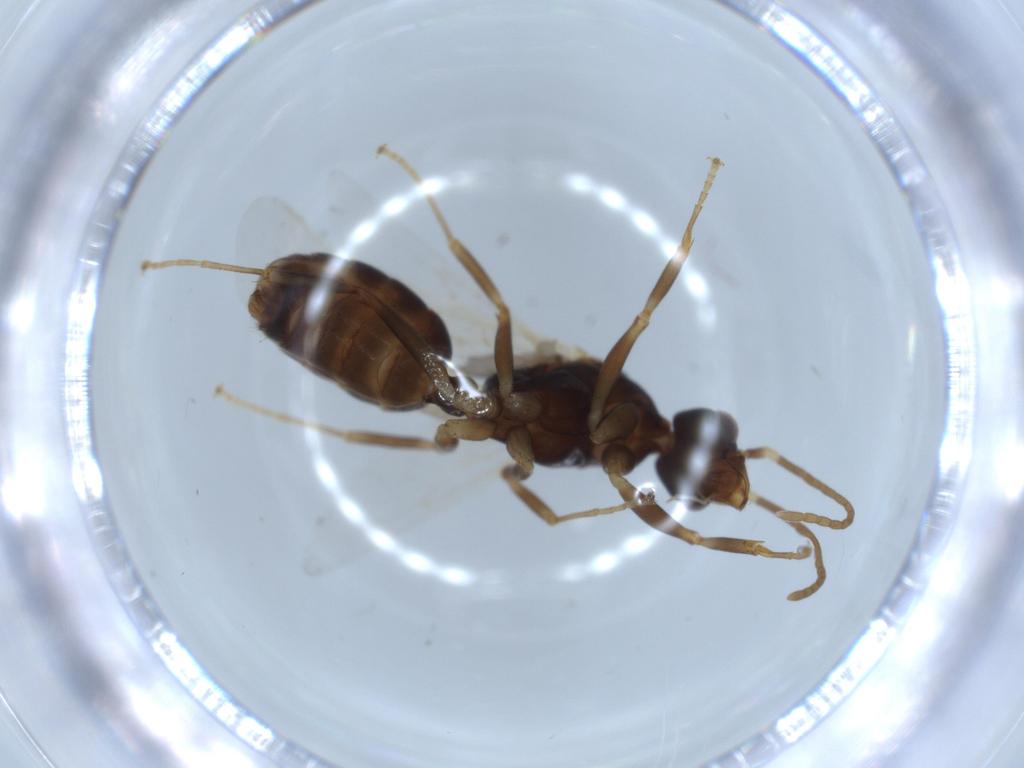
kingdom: Animalia
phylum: Arthropoda
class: Insecta
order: Hymenoptera
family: Formicidae
